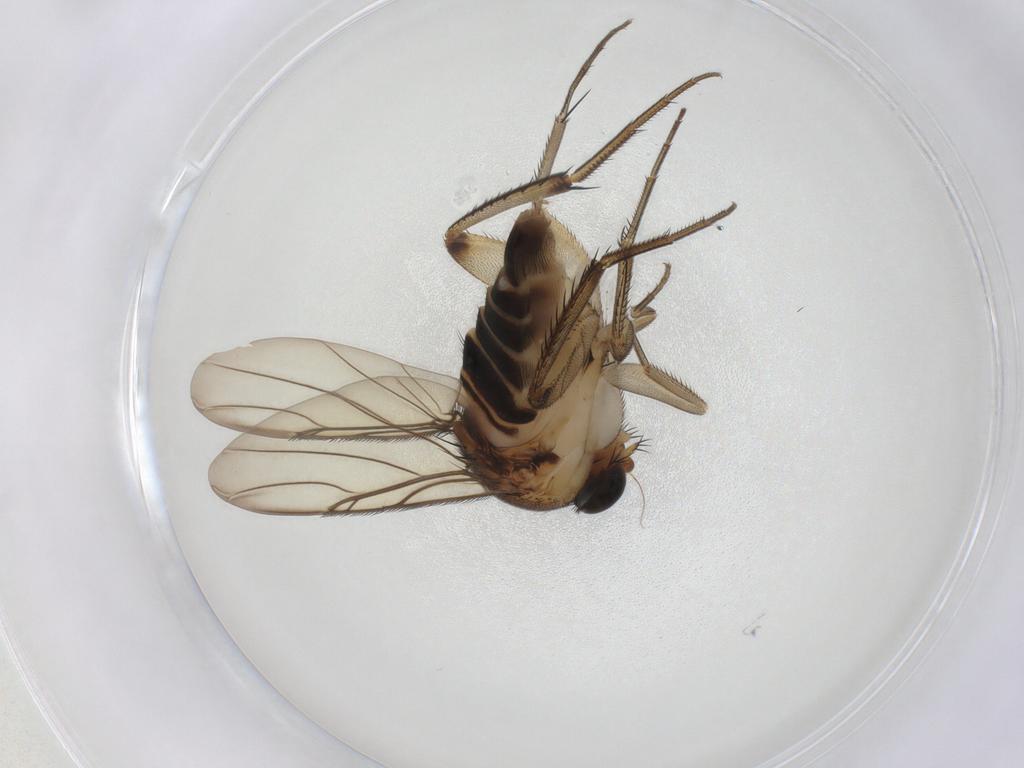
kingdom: Animalia
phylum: Arthropoda
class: Insecta
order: Diptera
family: Phoridae
